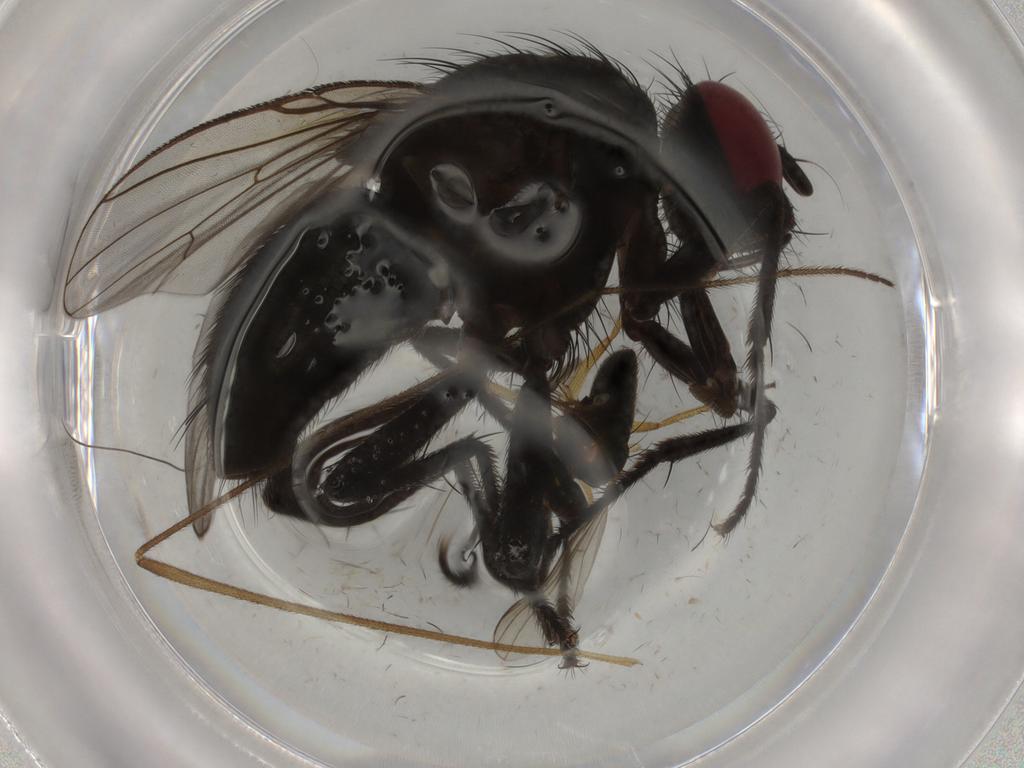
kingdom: Animalia
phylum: Arthropoda
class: Insecta
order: Diptera
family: Muscidae
